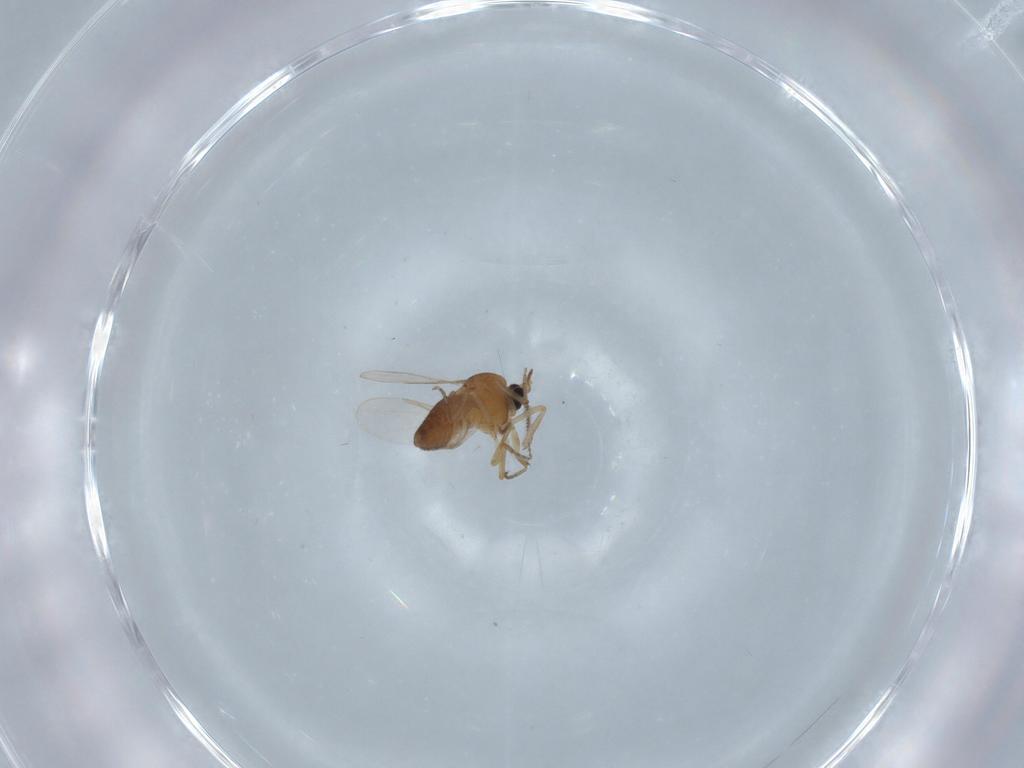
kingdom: Animalia
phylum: Arthropoda
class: Insecta
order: Diptera
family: Ceratopogonidae
